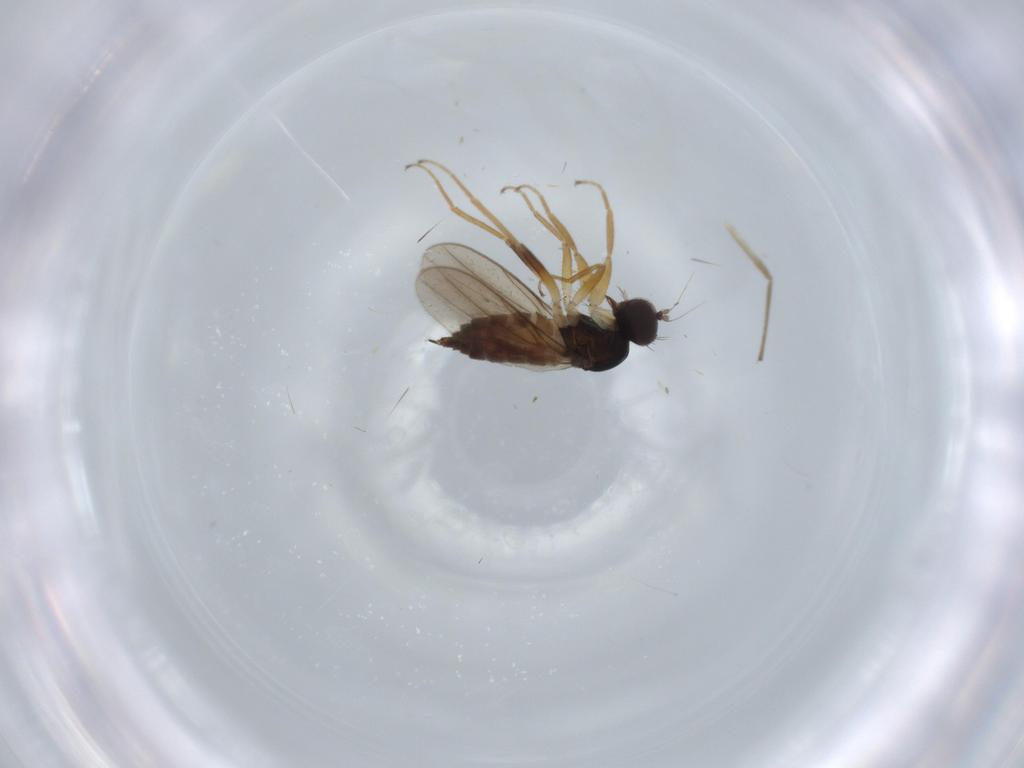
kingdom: Animalia
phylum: Arthropoda
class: Insecta
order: Diptera
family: Hybotidae
